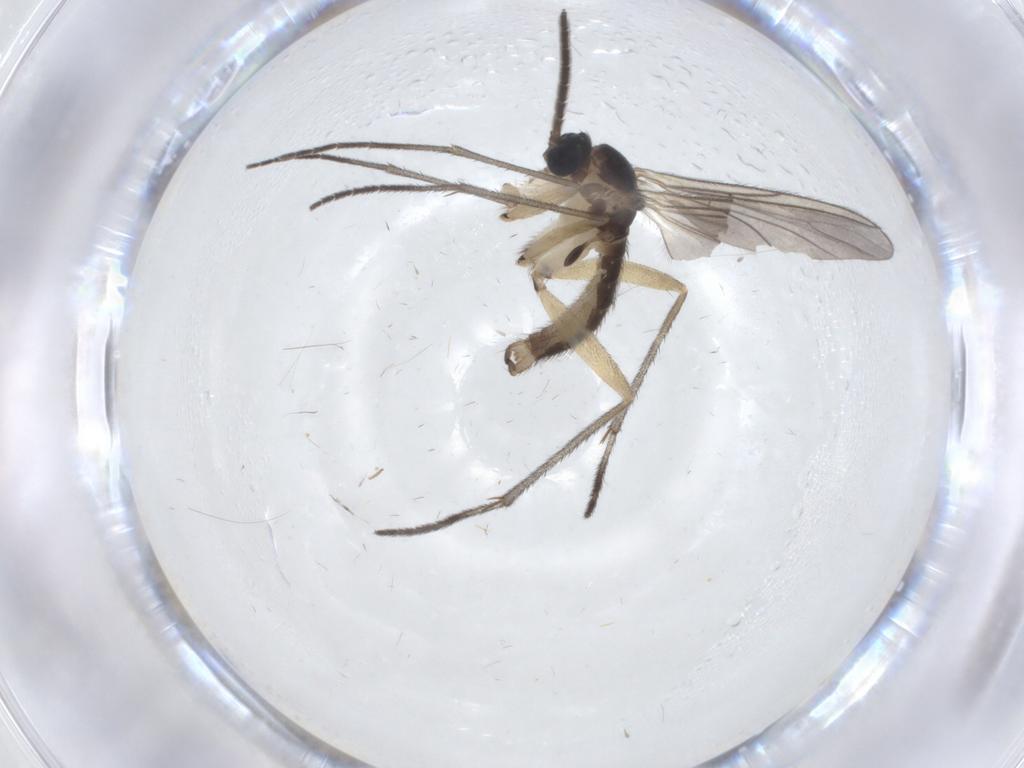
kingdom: Animalia
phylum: Arthropoda
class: Insecta
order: Diptera
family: Sciaridae
